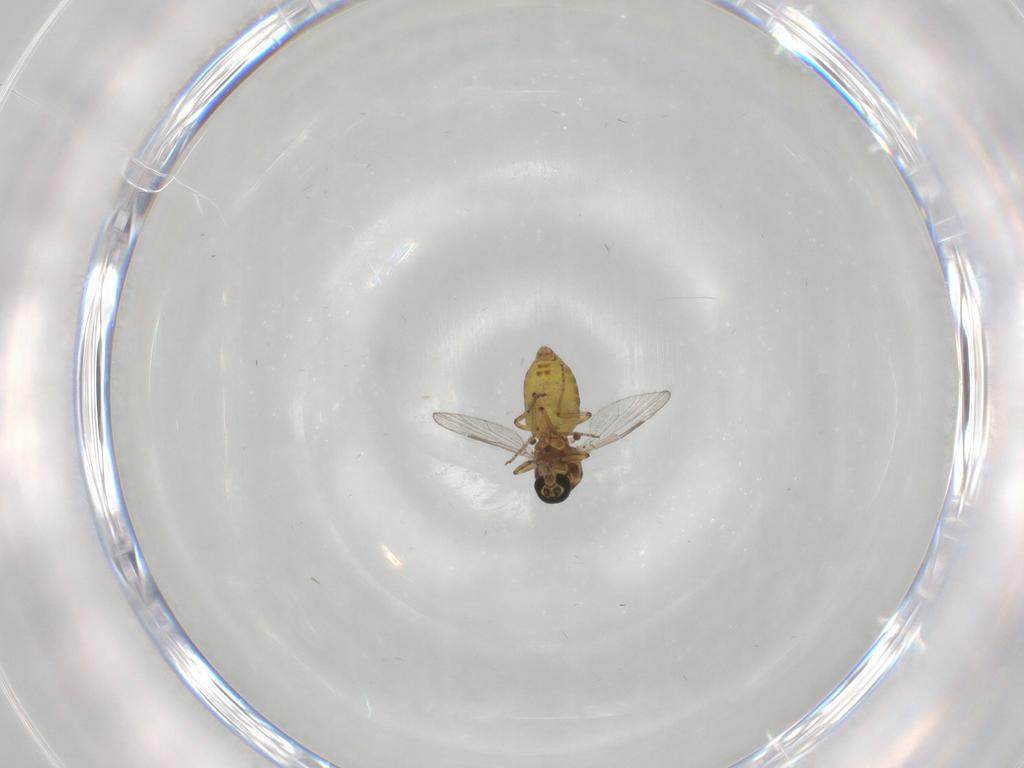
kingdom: Animalia
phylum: Arthropoda
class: Insecta
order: Diptera
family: Ceratopogonidae
